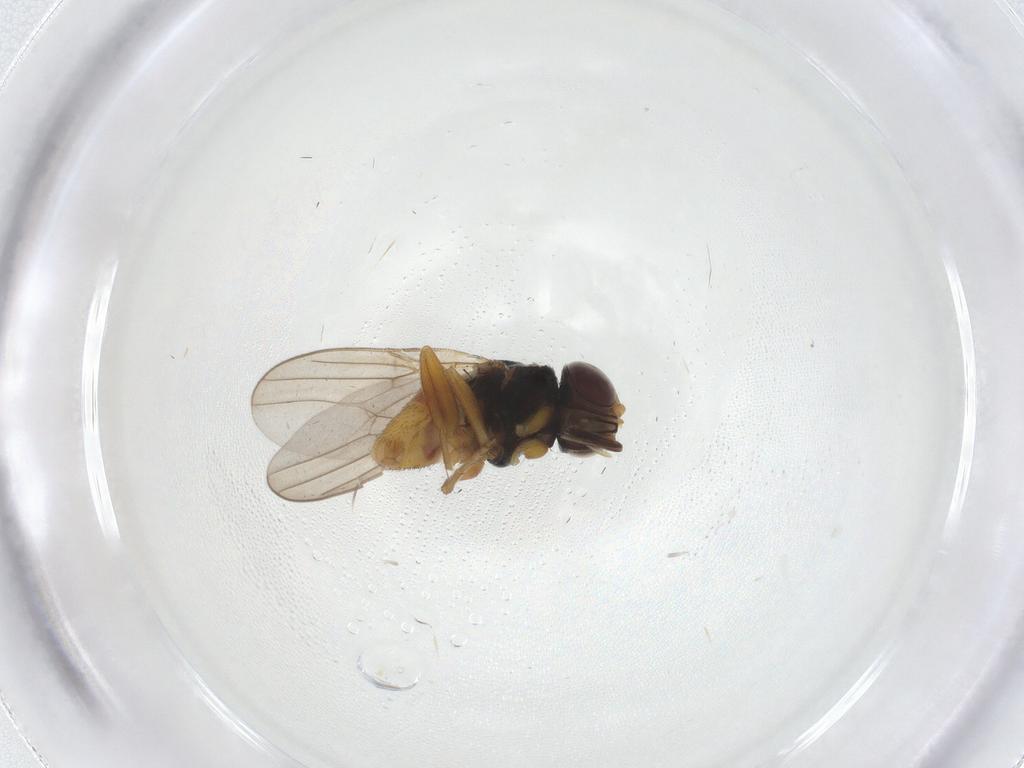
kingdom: Animalia
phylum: Arthropoda
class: Insecta
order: Diptera
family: Chloropidae
